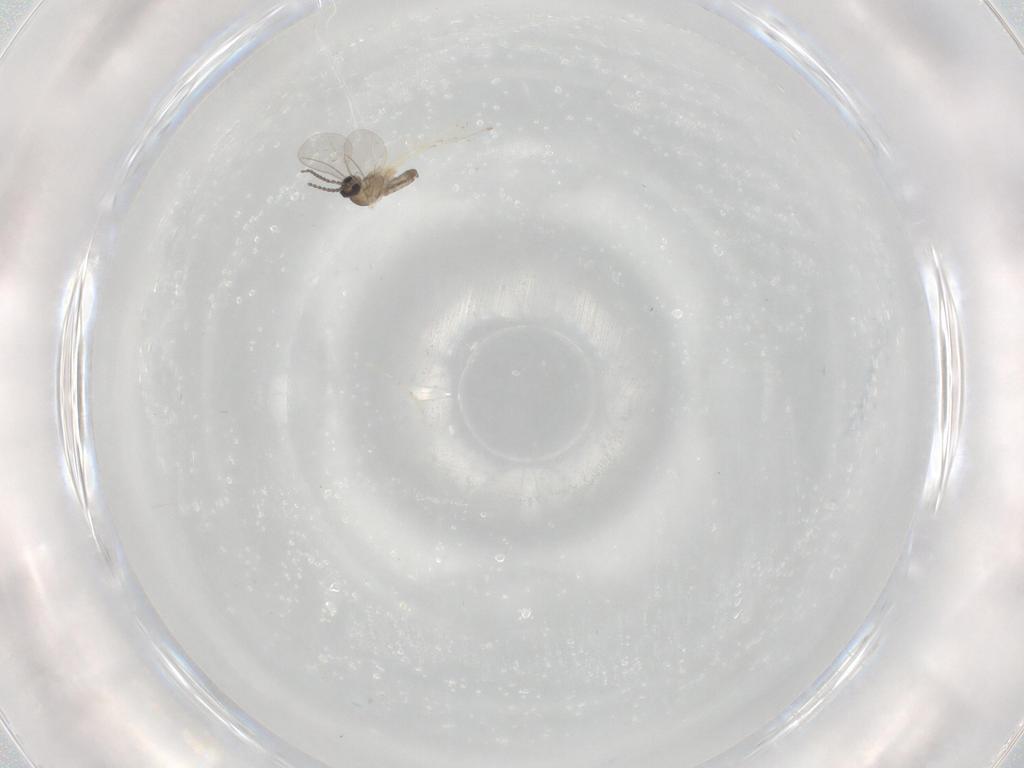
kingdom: Animalia
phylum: Arthropoda
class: Insecta
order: Diptera
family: Cecidomyiidae
